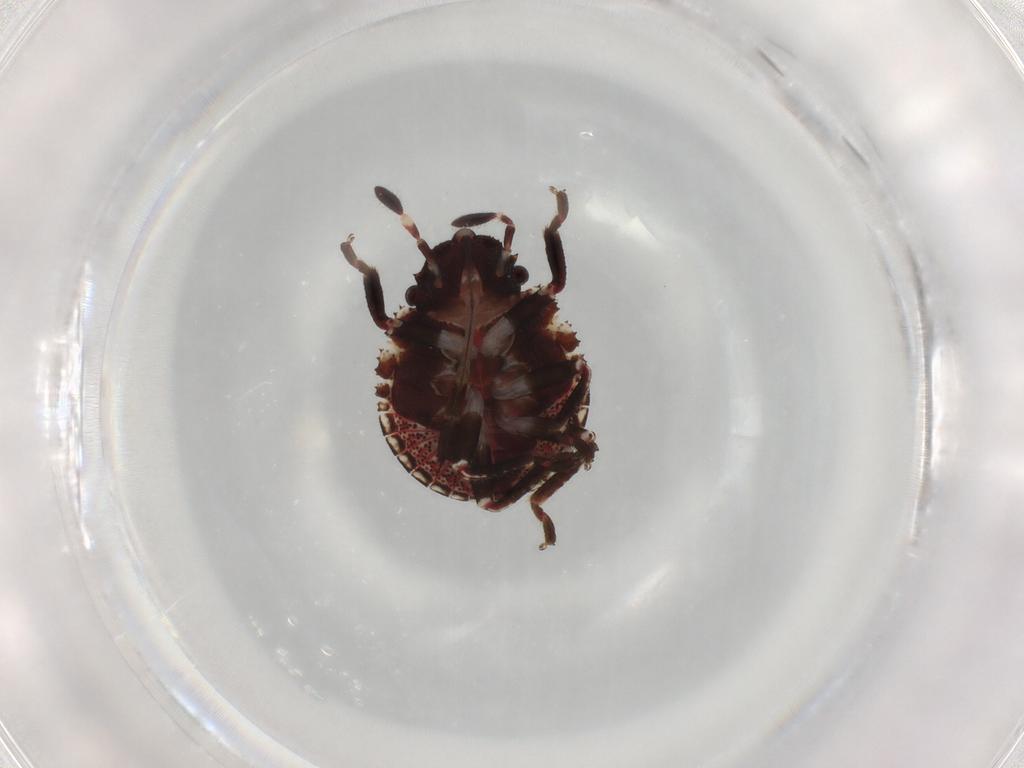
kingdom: Animalia
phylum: Arthropoda
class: Insecta
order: Hemiptera
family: Scutelleridae
